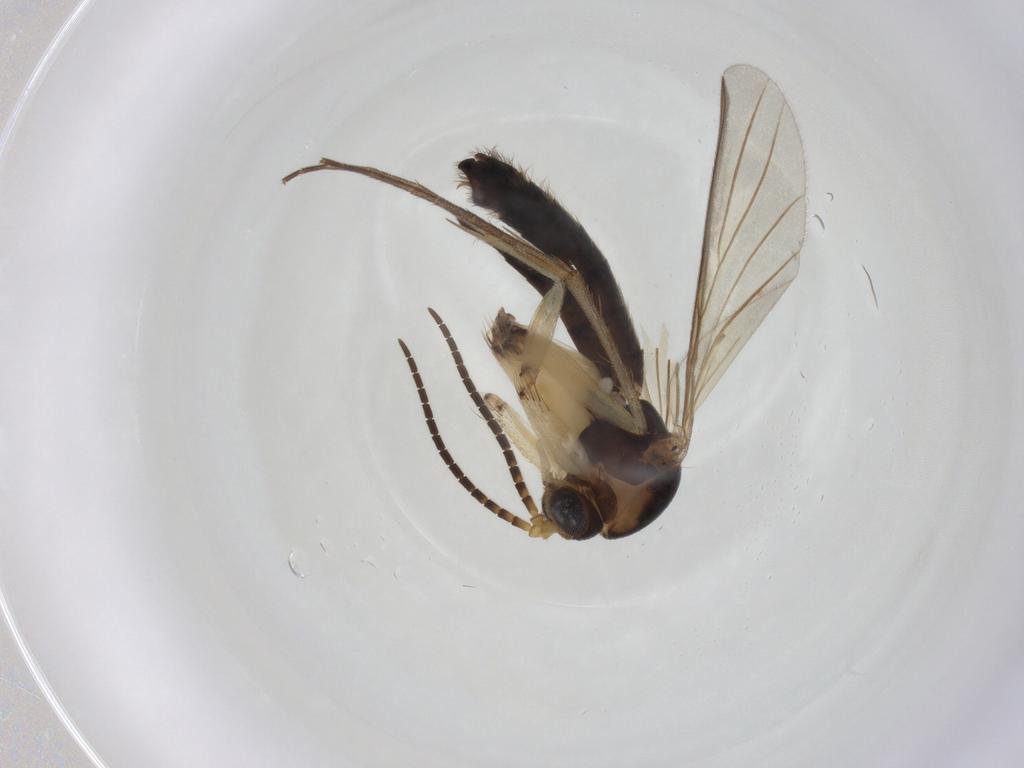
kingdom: Animalia
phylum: Arthropoda
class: Insecta
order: Diptera
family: Mycetophilidae
